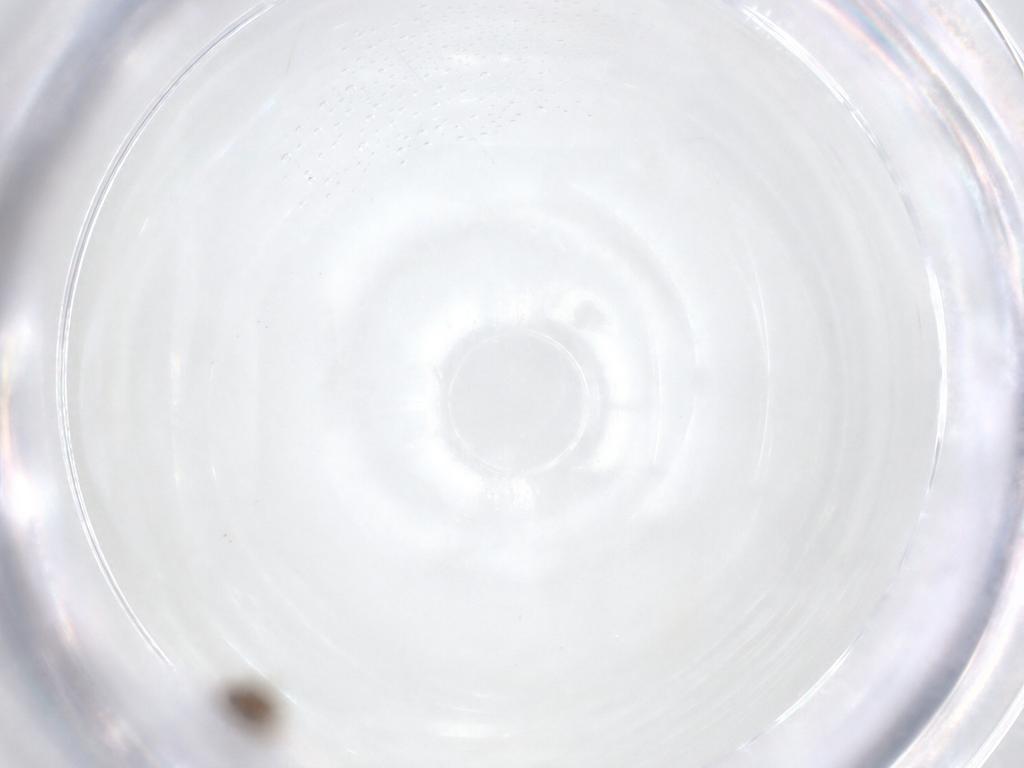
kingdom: Animalia
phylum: Arthropoda
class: Insecta
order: Hymenoptera
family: Eulophidae
